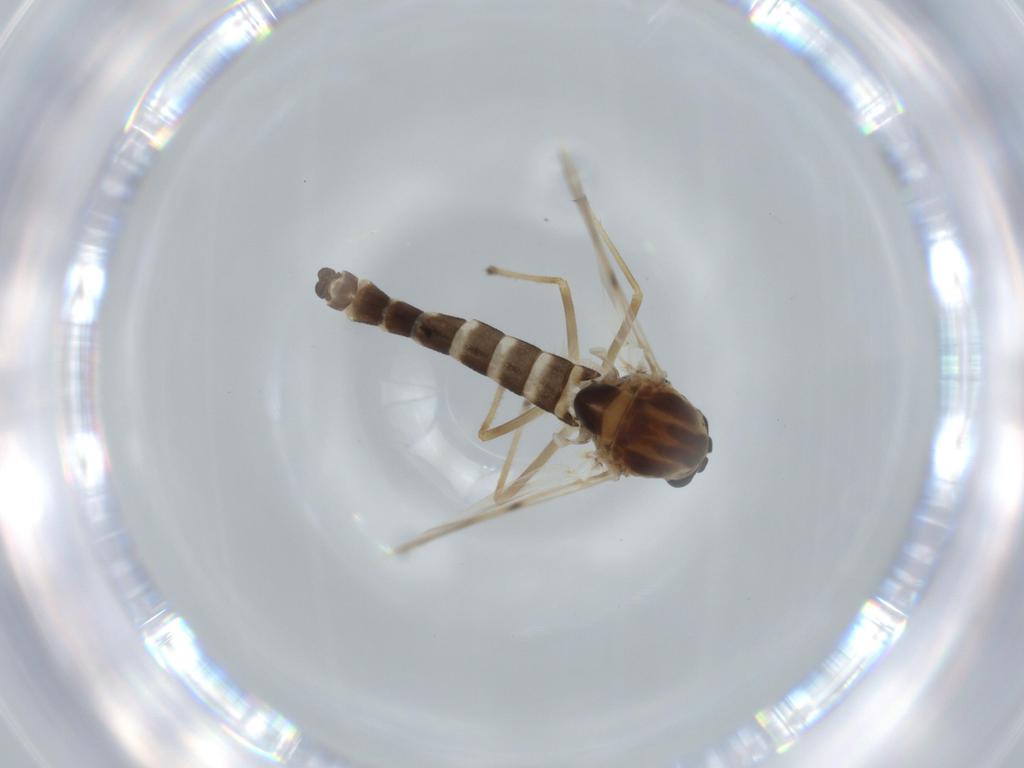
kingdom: Animalia
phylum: Arthropoda
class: Insecta
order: Diptera
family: Chironomidae
